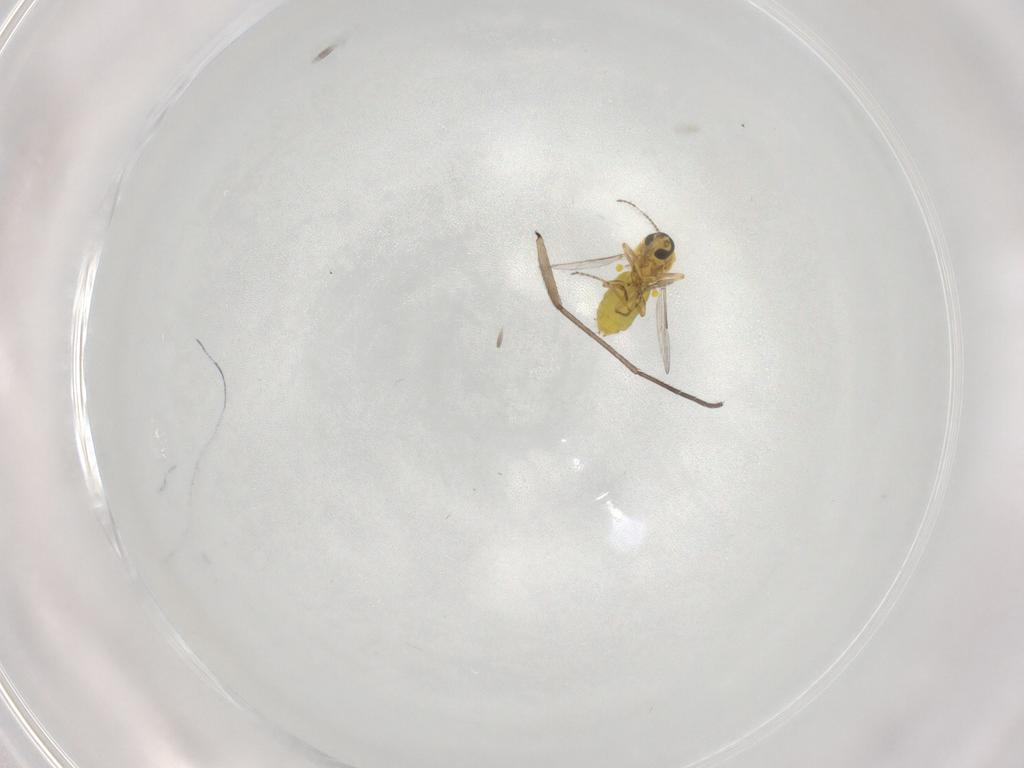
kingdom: Animalia
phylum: Arthropoda
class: Insecta
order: Diptera
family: Ceratopogonidae
